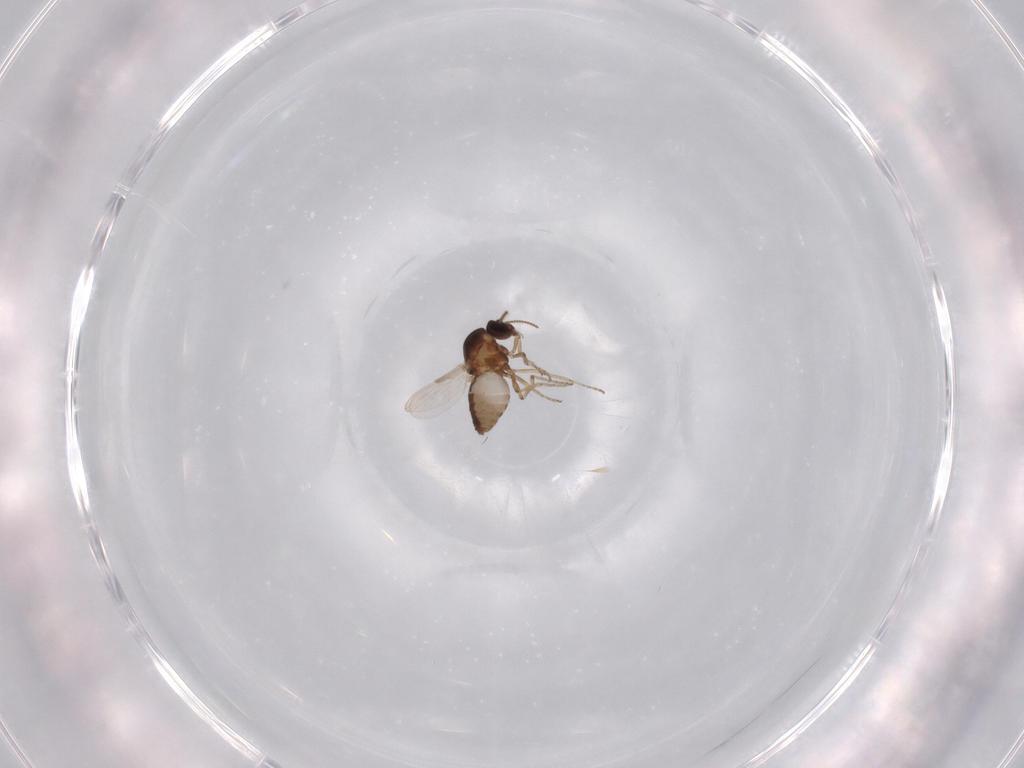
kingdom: Animalia
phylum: Arthropoda
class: Insecta
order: Diptera
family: Ceratopogonidae
